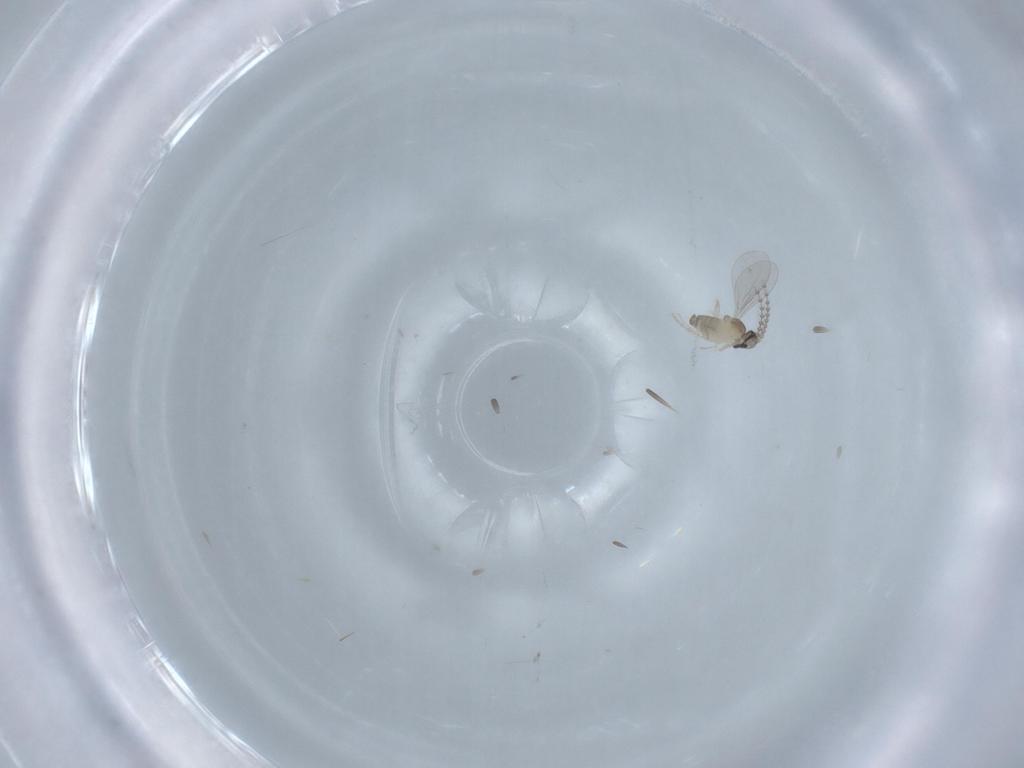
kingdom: Animalia
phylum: Arthropoda
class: Insecta
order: Diptera
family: Cecidomyiidae
